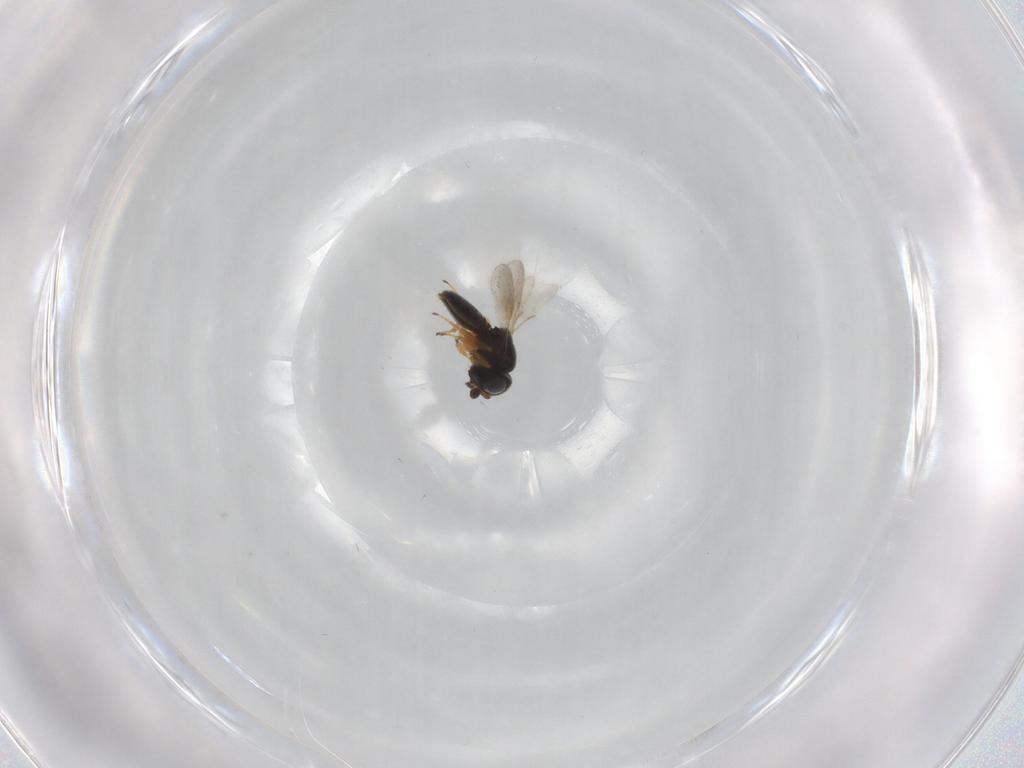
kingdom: Animalia
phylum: Arthropoda
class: Insecta
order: Hymenoptera
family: Scelionidae
